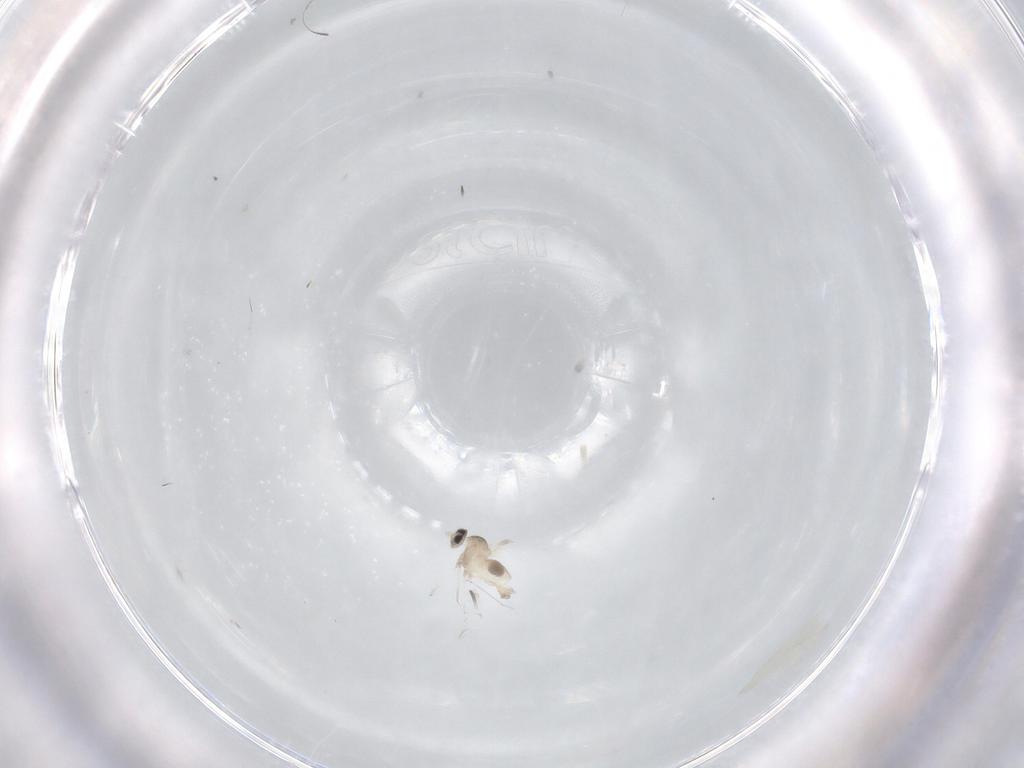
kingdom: Animalia
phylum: Arthropoda
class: Insecta
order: Diptera
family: Cecidomyiidae
